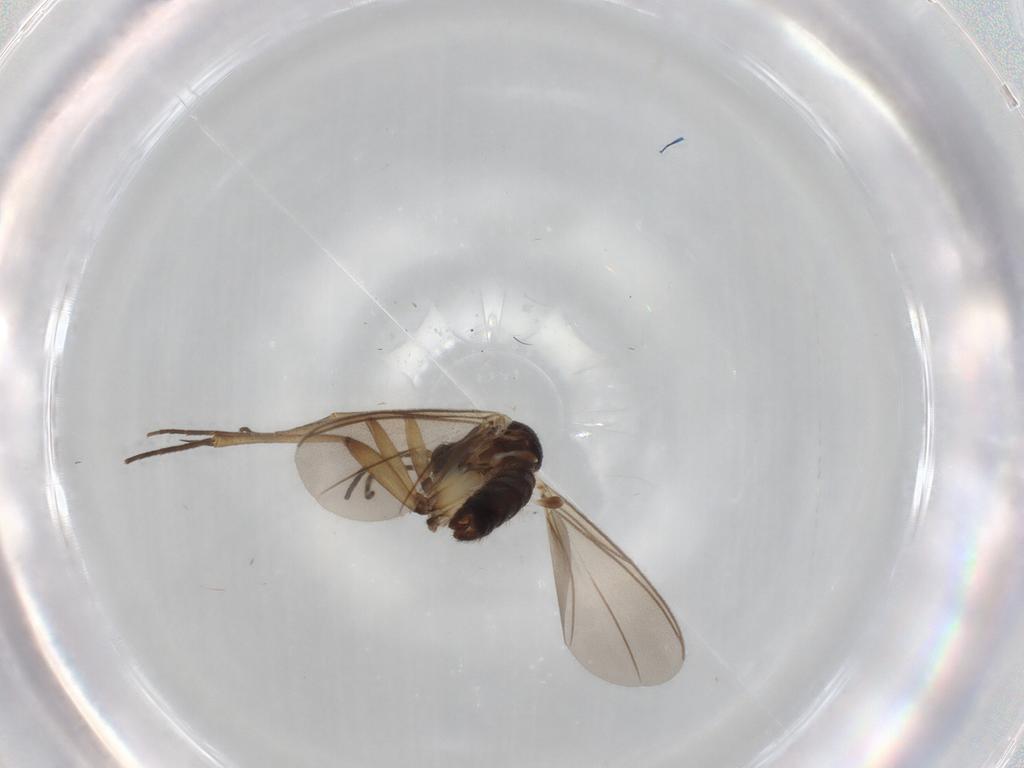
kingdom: Animalia
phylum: Arthropoda
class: Insecta
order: Diptera
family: Mycetophilidae
